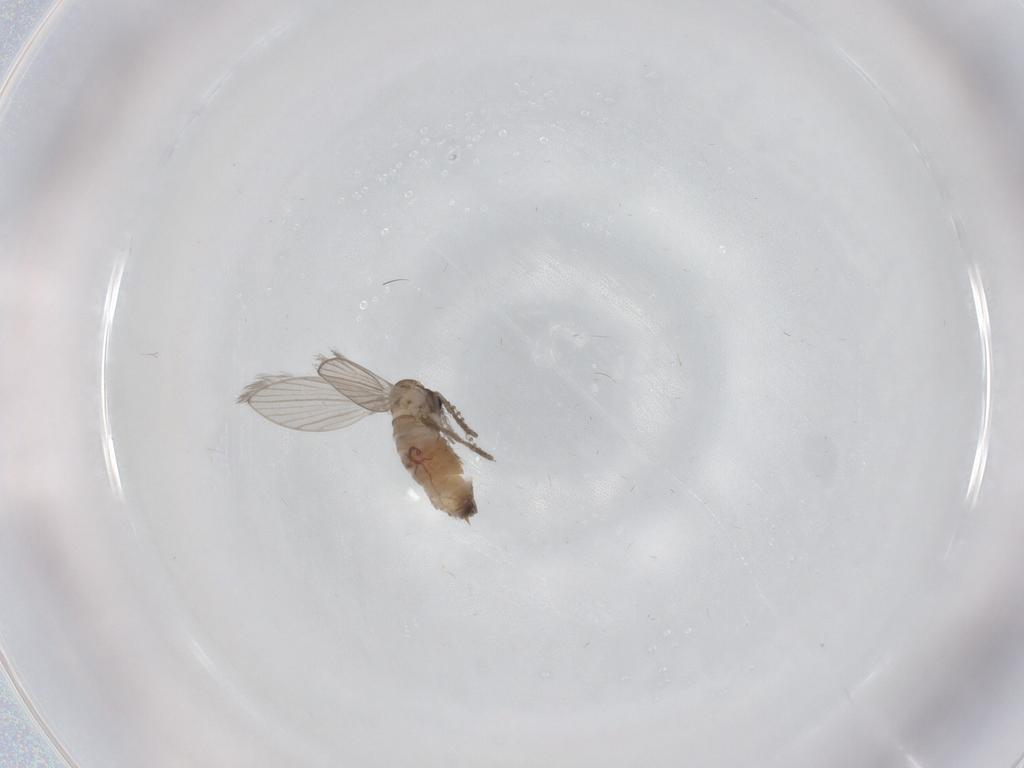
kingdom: Animalia
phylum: Arthropoda
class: Insecta
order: Diptera
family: Psychodidae
